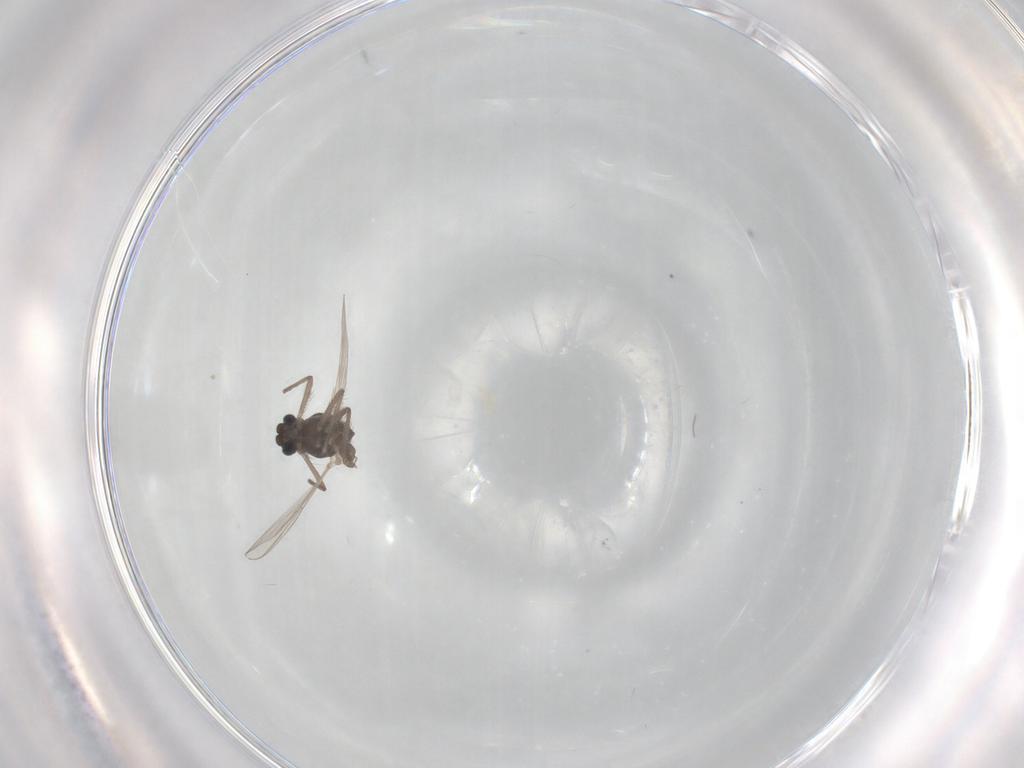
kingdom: Animalia
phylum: Arthropoda
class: Insecta
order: Diptera
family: Chironomidae
